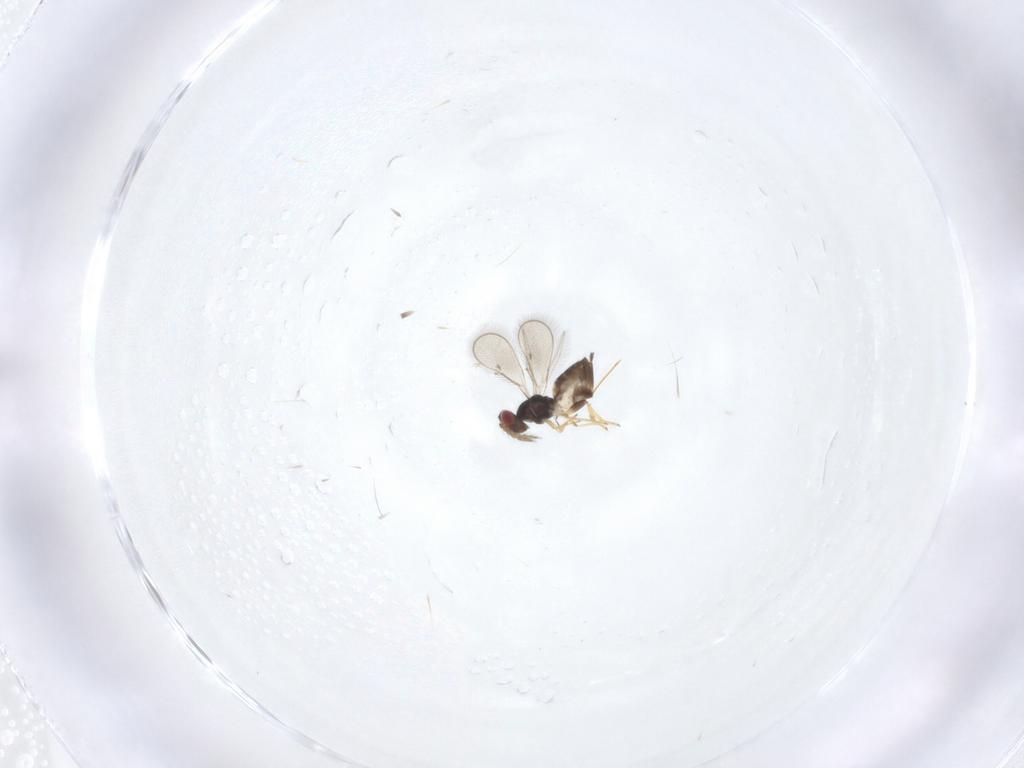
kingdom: Animalia
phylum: Arthropoda
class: Insecta
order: Hymenoptera
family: Eulophidae
